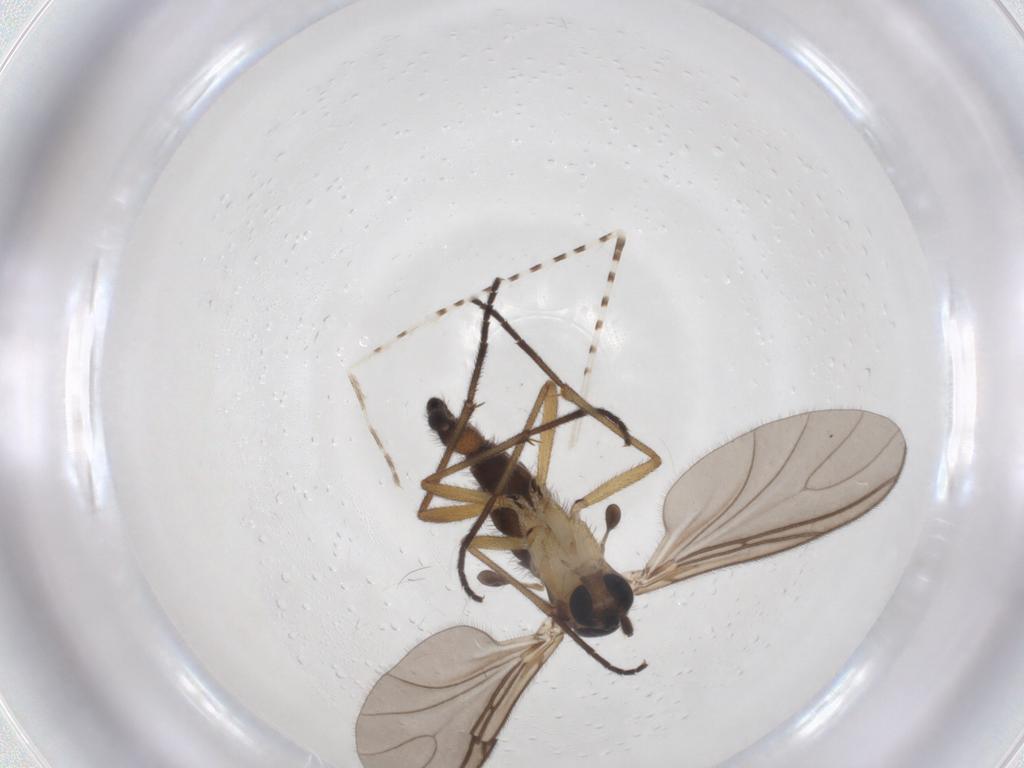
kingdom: Animalia
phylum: Arthropoda
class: Insecta
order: Diptera
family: Sciaridae
